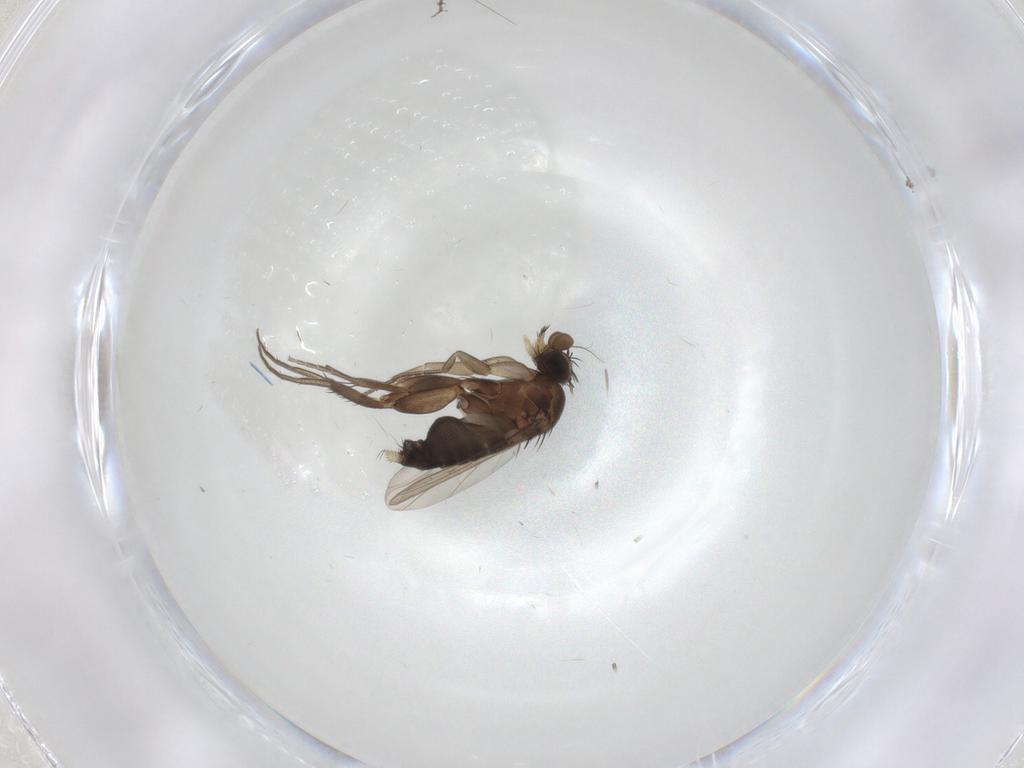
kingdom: Animalia
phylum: Arthropoda
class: Insecta
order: Diptera
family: Phoridae
